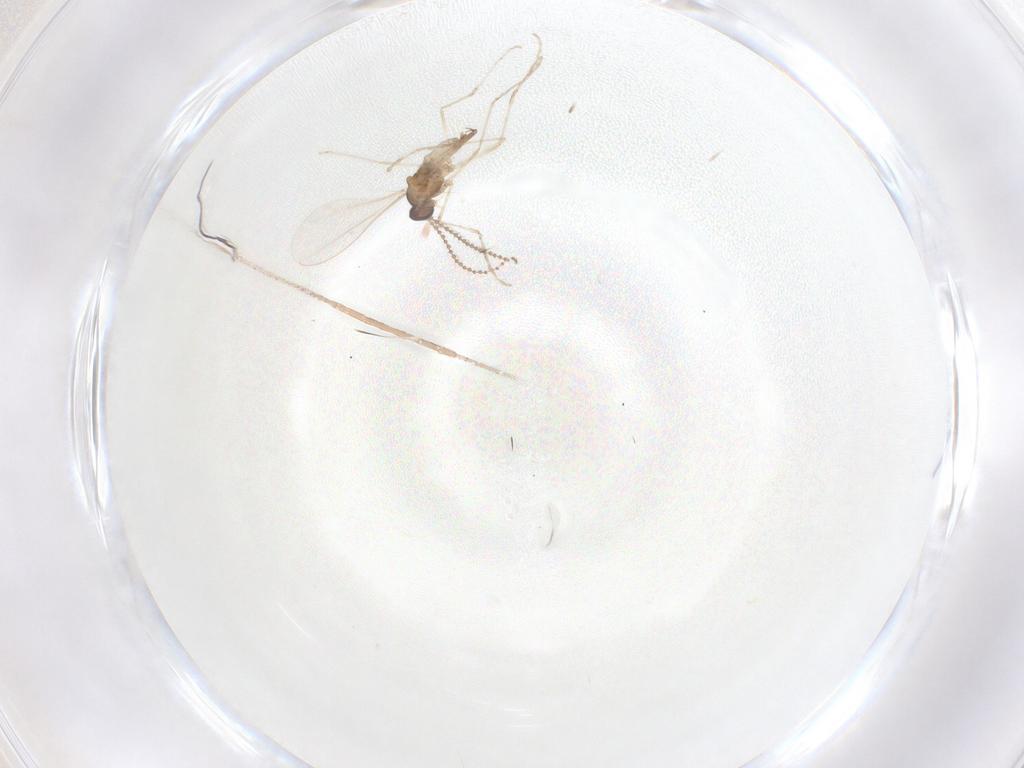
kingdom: Animalia
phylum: Arthropoda
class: Insecta
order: Diptera
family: Cecidomyiidae
